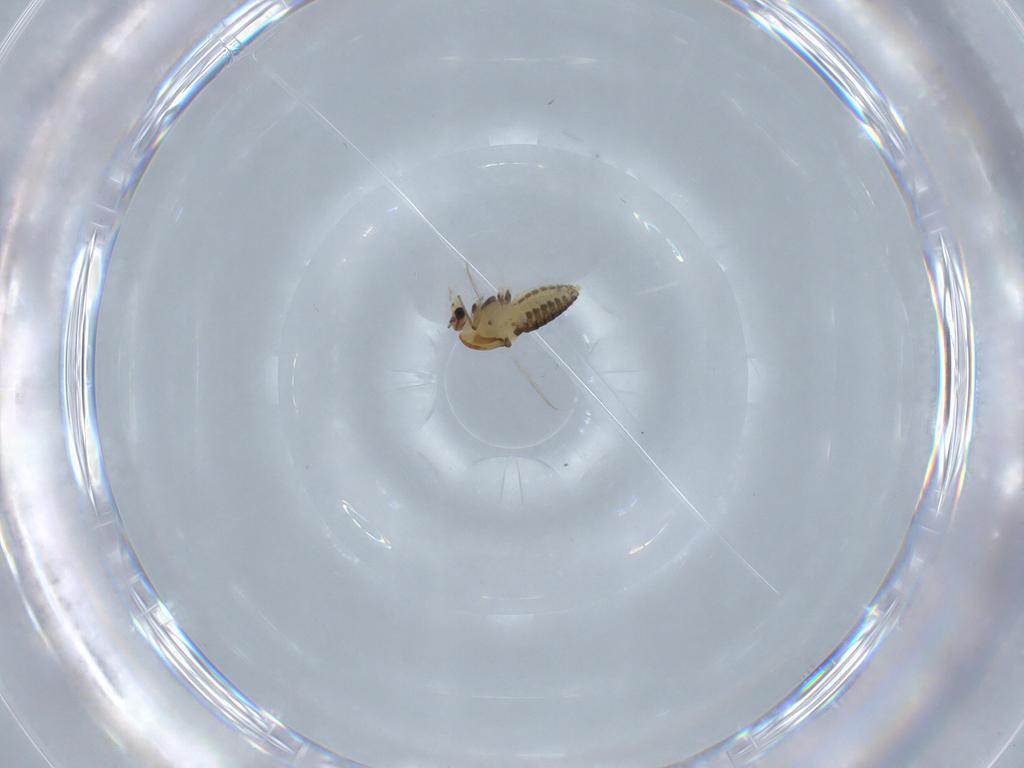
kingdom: Animalia
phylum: Arthropoda
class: Insecta
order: Diptera
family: Chironomidae
